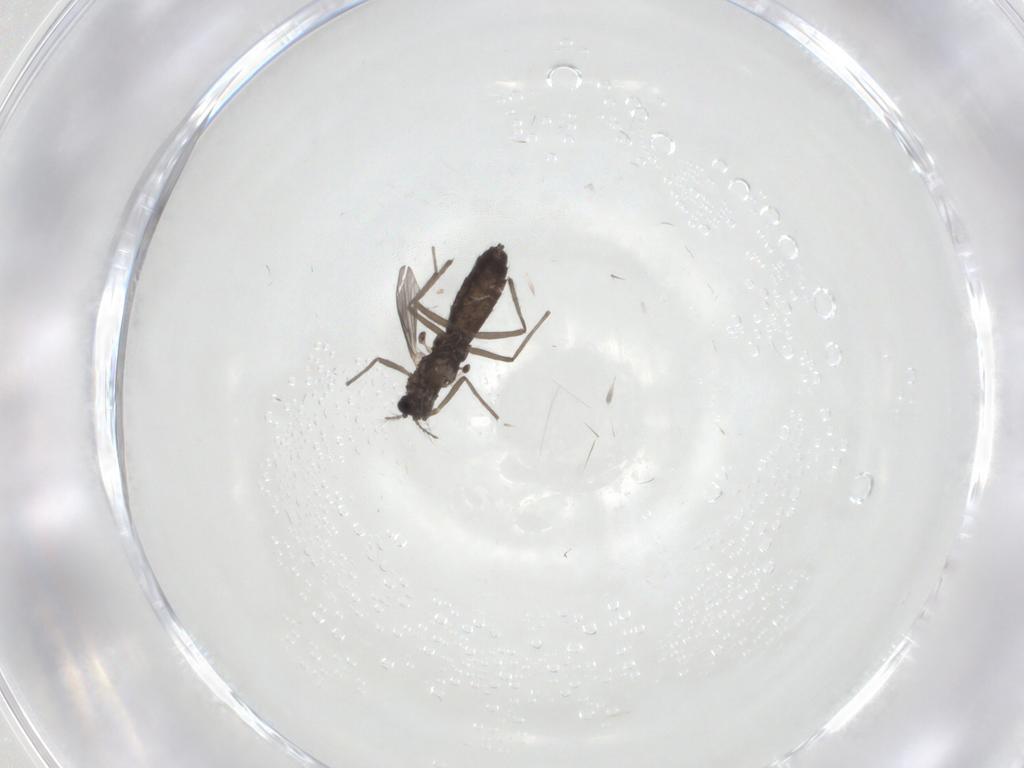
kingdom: Animalia
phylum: Arthropoda
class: Insecta
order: Diptera
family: Chironomidae
